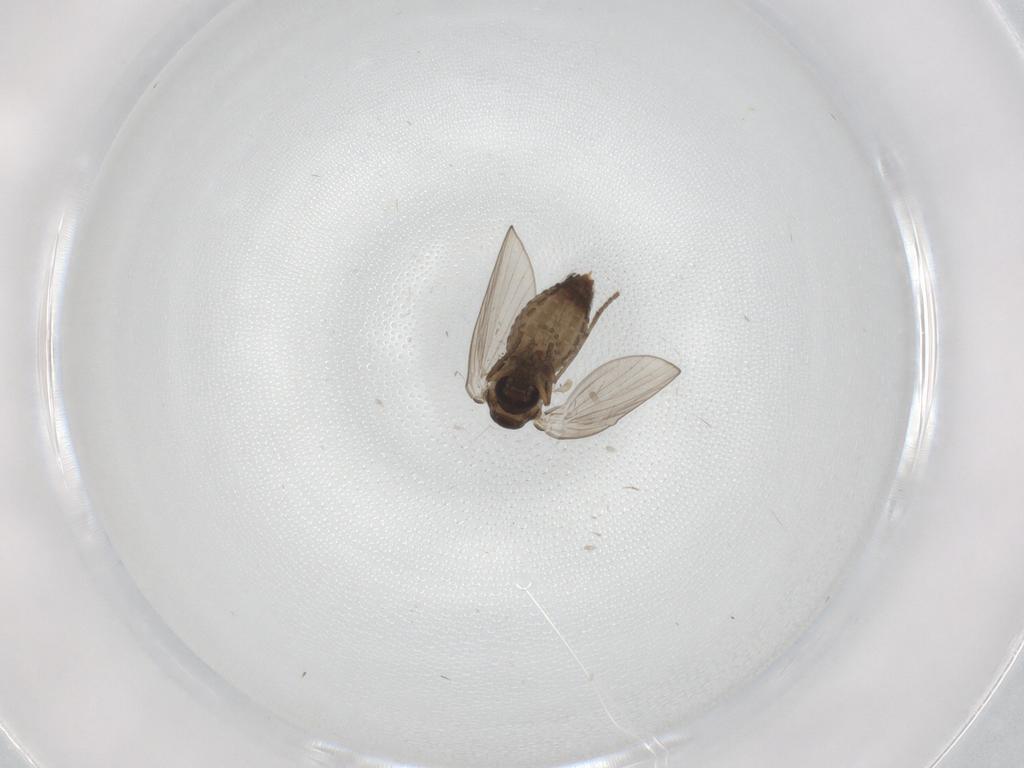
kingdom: Animalia
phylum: Arthropoda
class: Insecta
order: Diptera
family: Psychodidae
